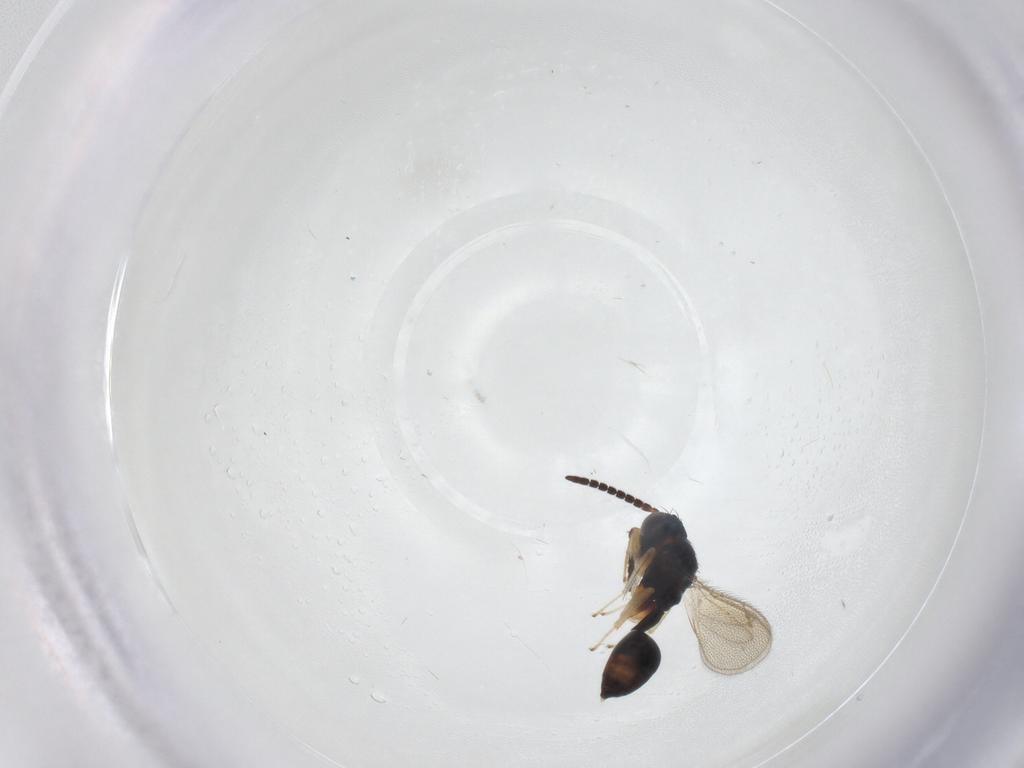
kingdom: Animalia
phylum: Arthropoda
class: Insecta
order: Hymenoptera
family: Diparidae
